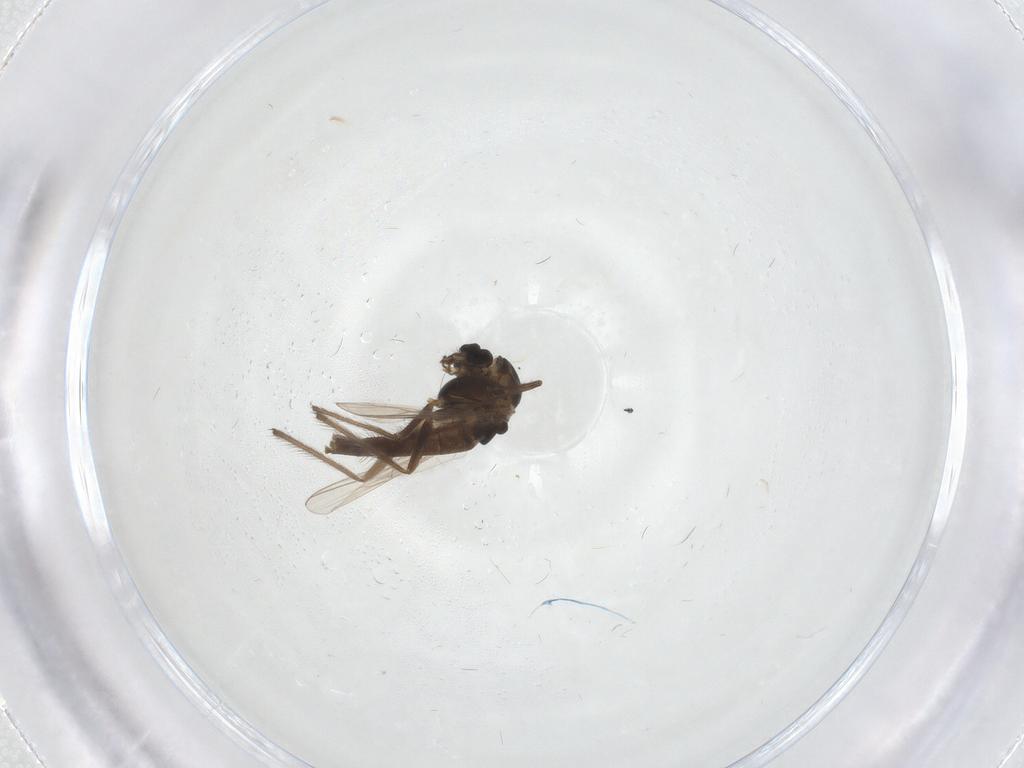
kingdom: Animalia
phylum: Arthropoda
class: Insecta
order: Diptera
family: Chironomidae
